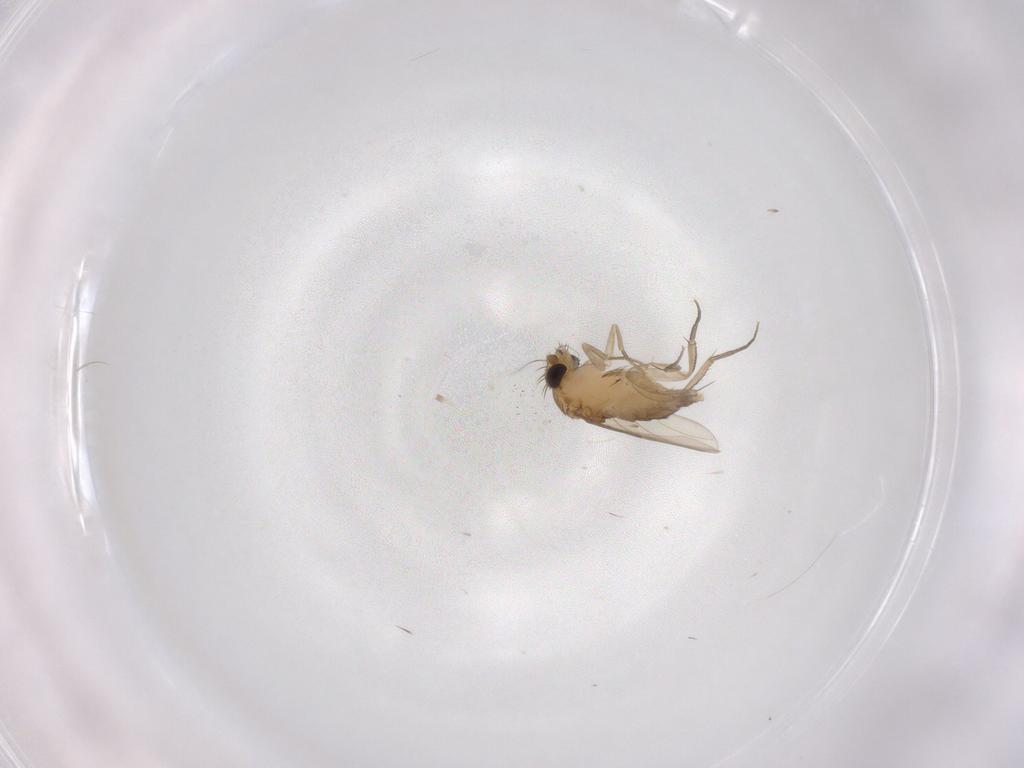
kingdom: Animalia
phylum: Arthropoda
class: Insecta
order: Diptera
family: Phoridae
